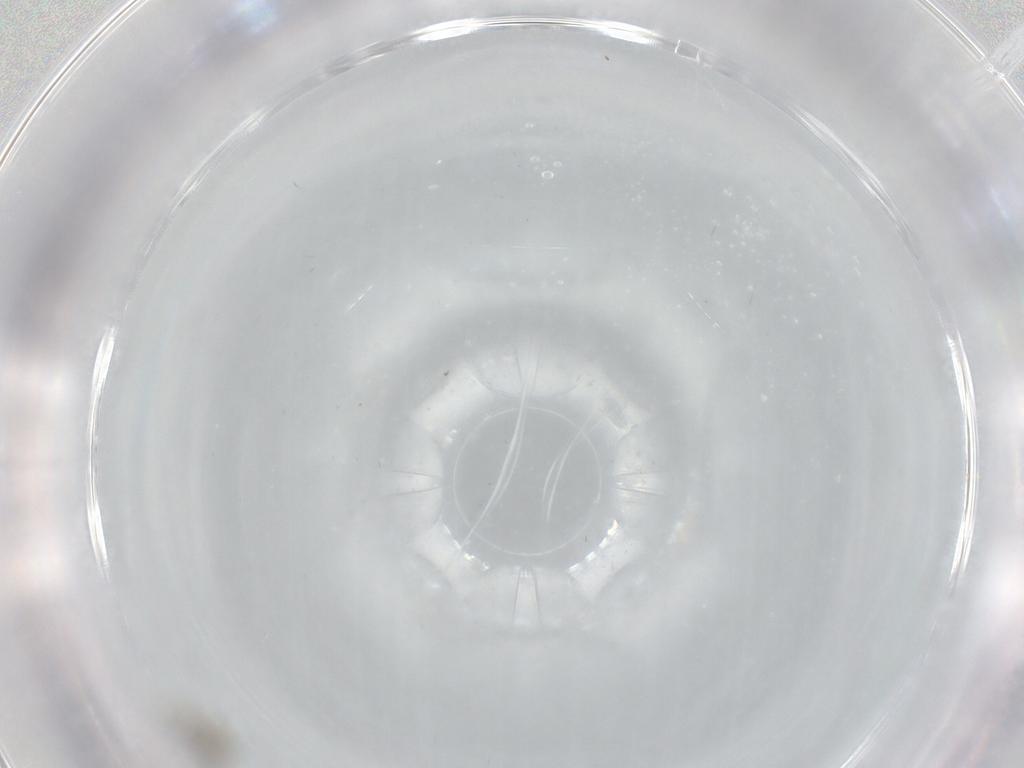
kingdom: Animalia
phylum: Arthropoda
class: Insecta
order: Diptera
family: Cecidomyiidae
